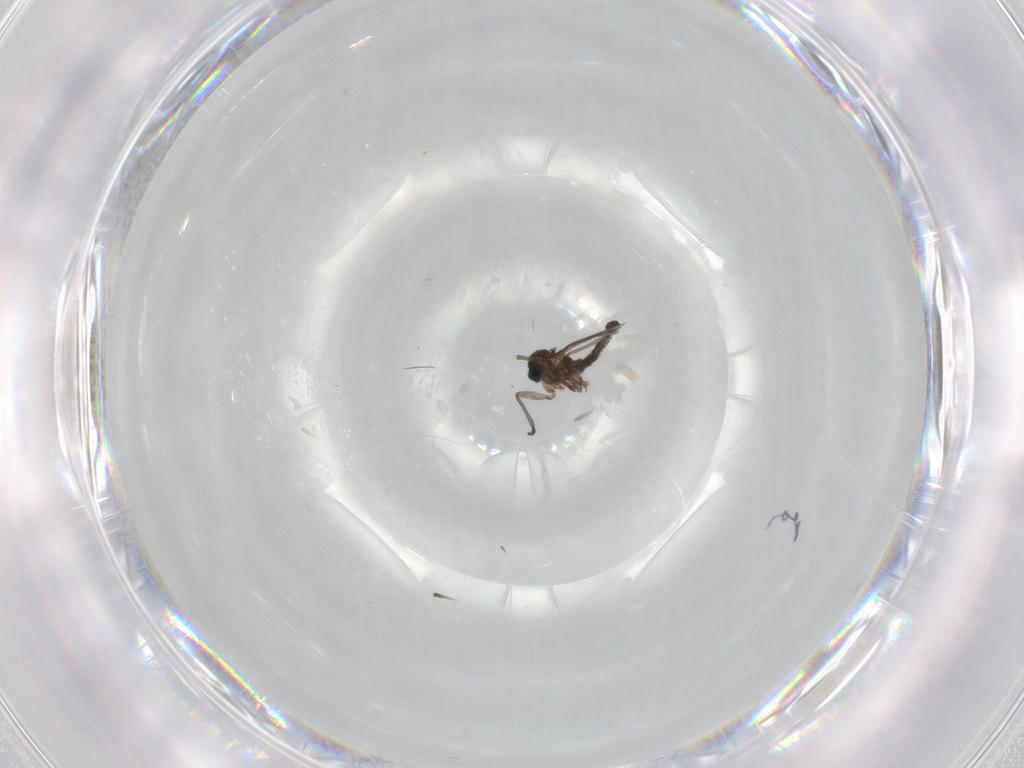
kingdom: Animalia
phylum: Arthropoda
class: Insecta
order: Diptera
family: Sciaridae
